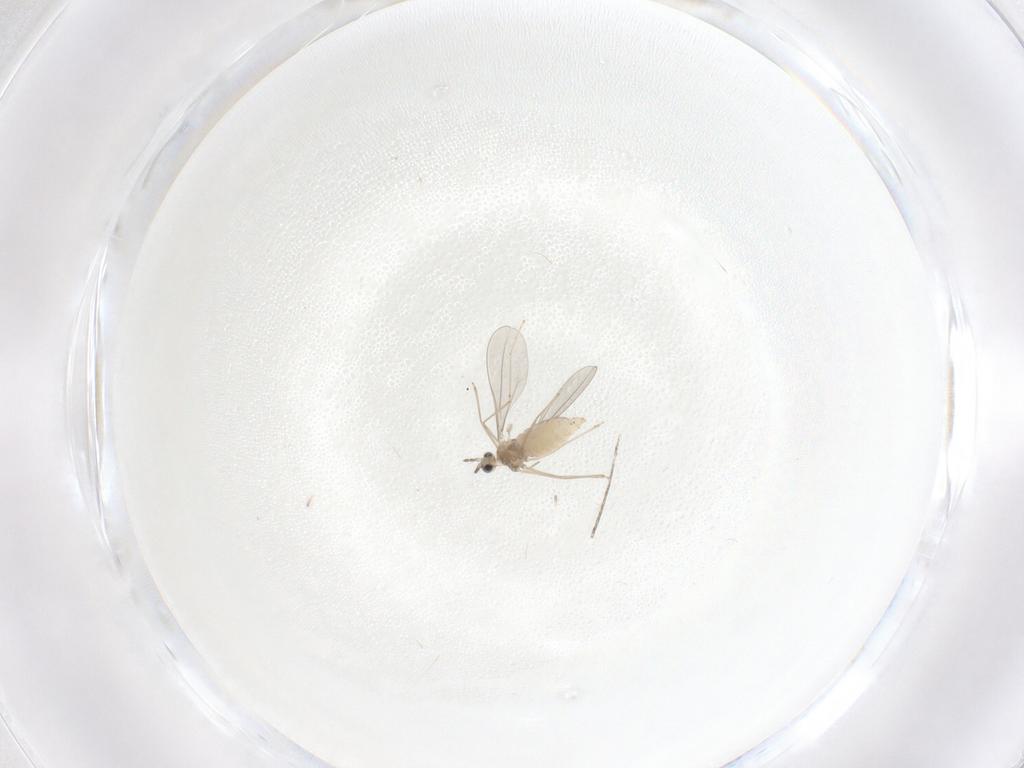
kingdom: Animalia
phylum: Arthropoda
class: Insecta
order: Diptera
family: Cecidomyiidae
